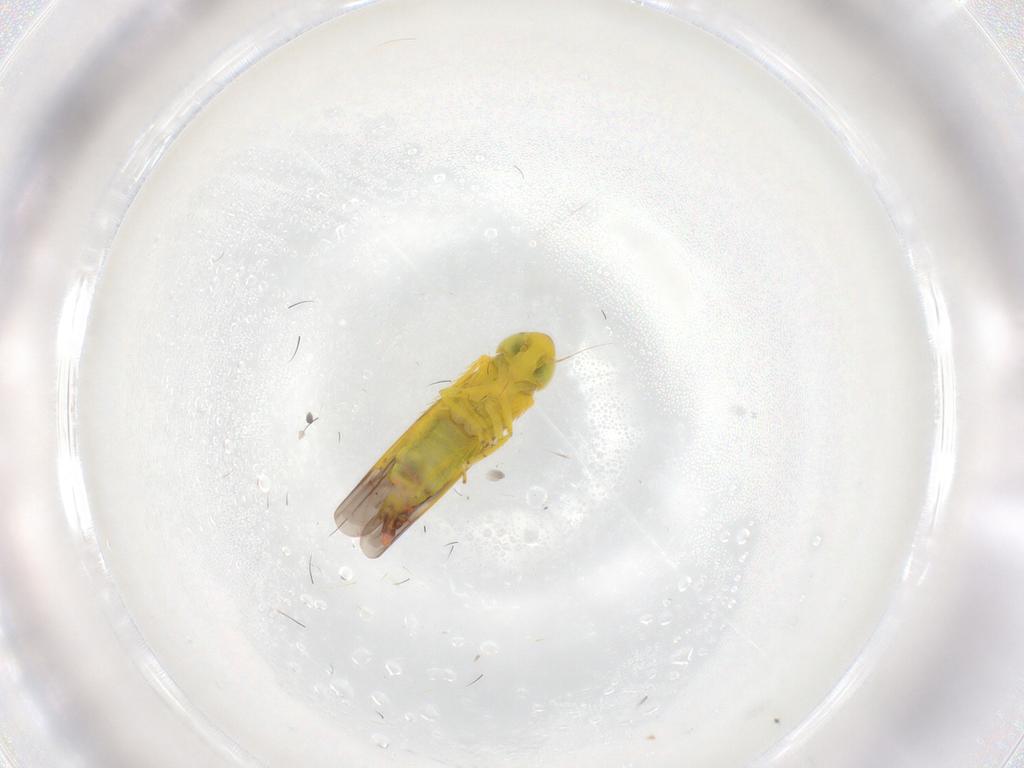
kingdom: Animalia
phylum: Arthropoda
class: Insecta
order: Hemiptera
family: Cicadellidae
